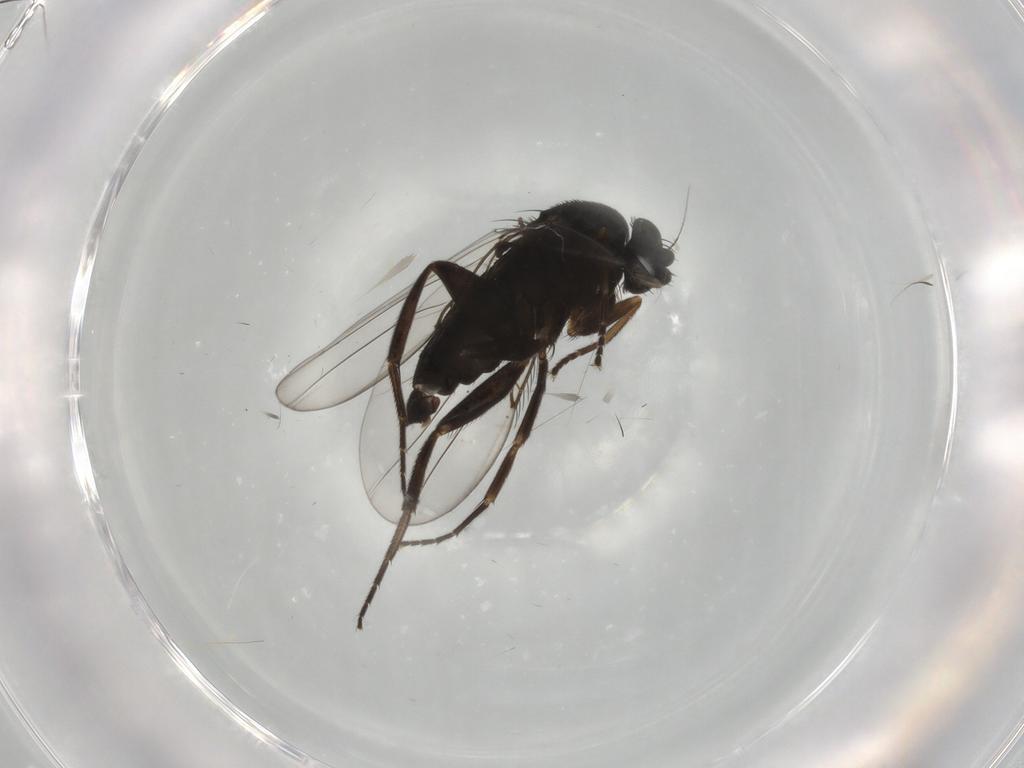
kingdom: Animalia
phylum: Arthropoda
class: Insecta
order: Diptera
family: Phoridae
